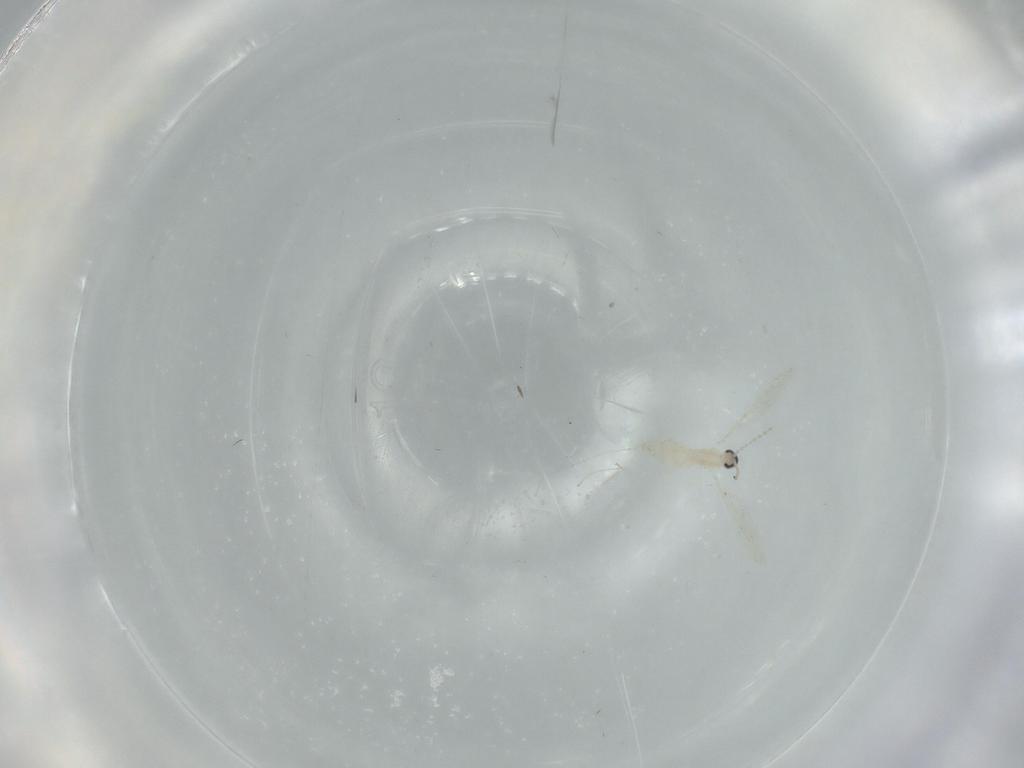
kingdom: Animalia
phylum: Arthropoda
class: Insecta
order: Diptera
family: Cecidomyiidae
